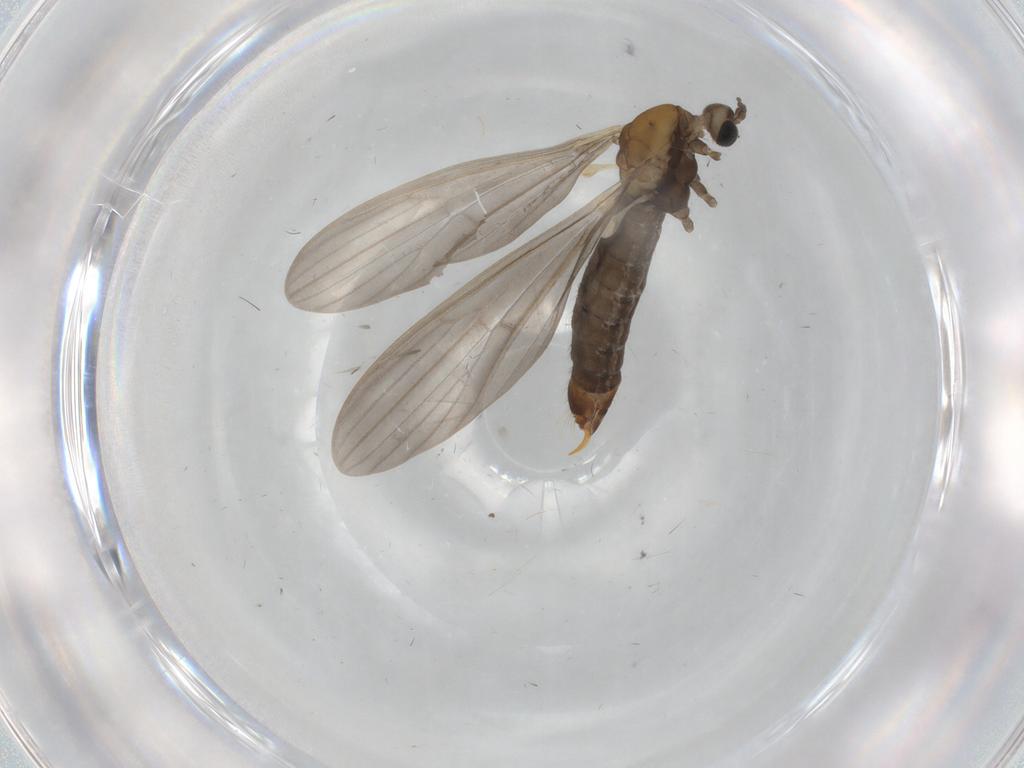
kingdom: Animalia
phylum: Arthropoda
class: Insecta
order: Diptera
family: Limoniidae
